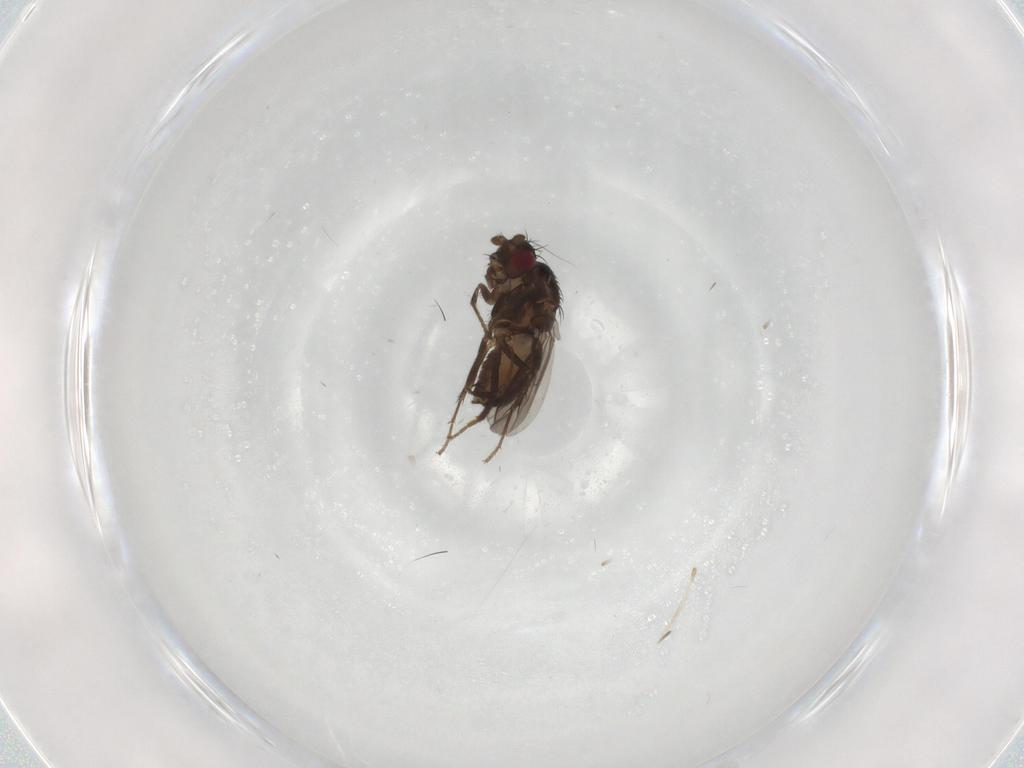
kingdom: Animalia
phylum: Arthropoda
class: Insecta
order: Diptera
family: Sphaeroceridae
